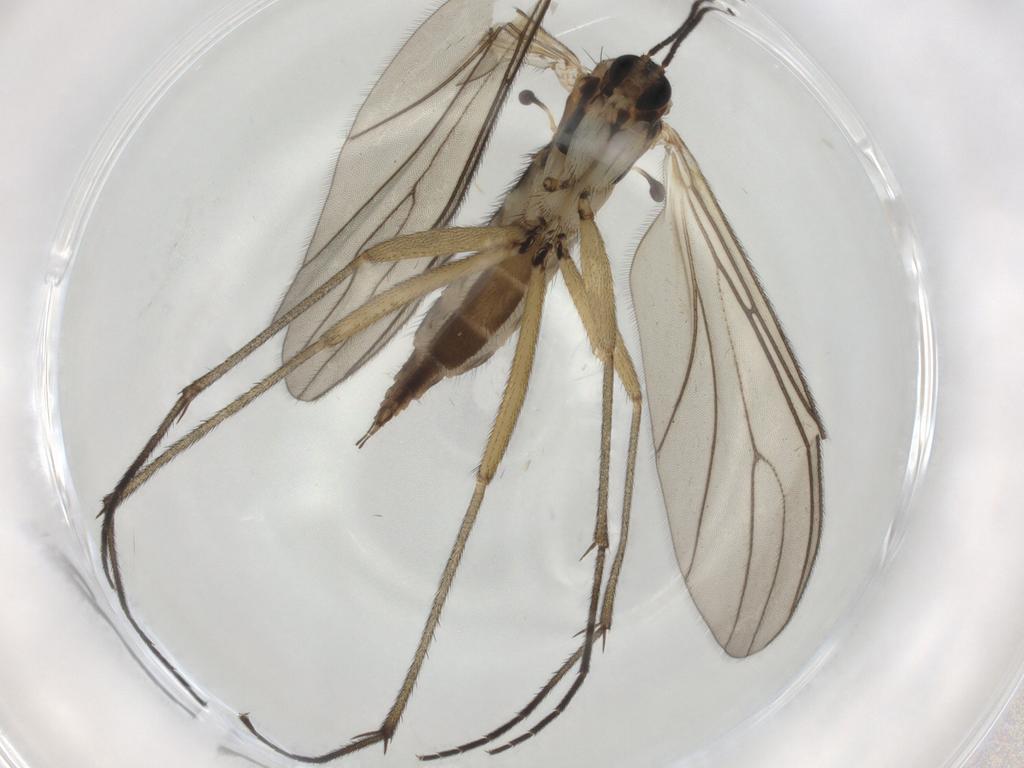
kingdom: Animalia
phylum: Arthropoda
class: Insecta
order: Diptera
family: Sciaridae
